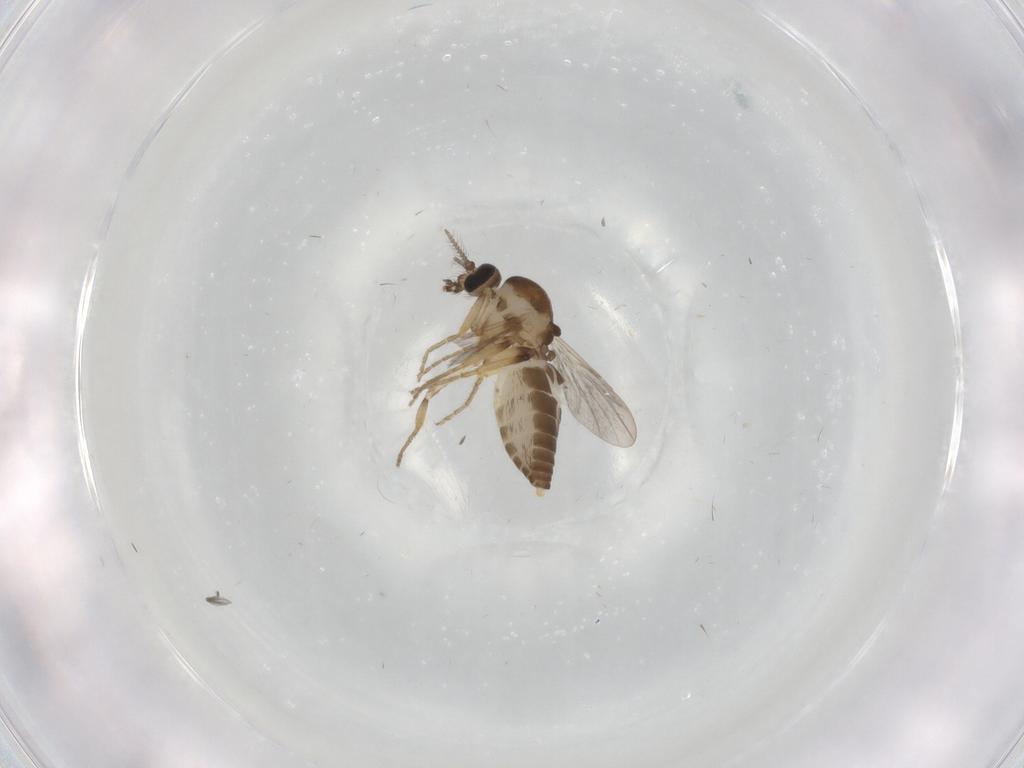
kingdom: Animalia
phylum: Arthropoda
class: Insecta
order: Diptera
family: Ceratopogonidae
